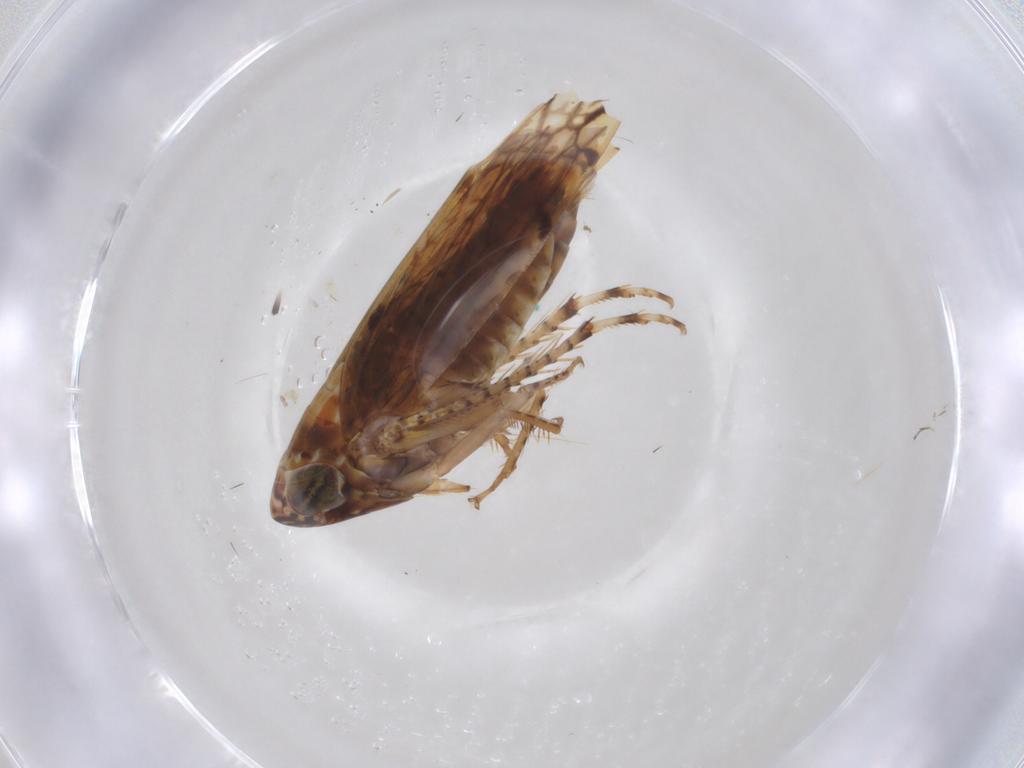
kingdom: Animalia
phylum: Arthropoda
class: Insecta
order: Hemiptera
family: Cicadellidae
